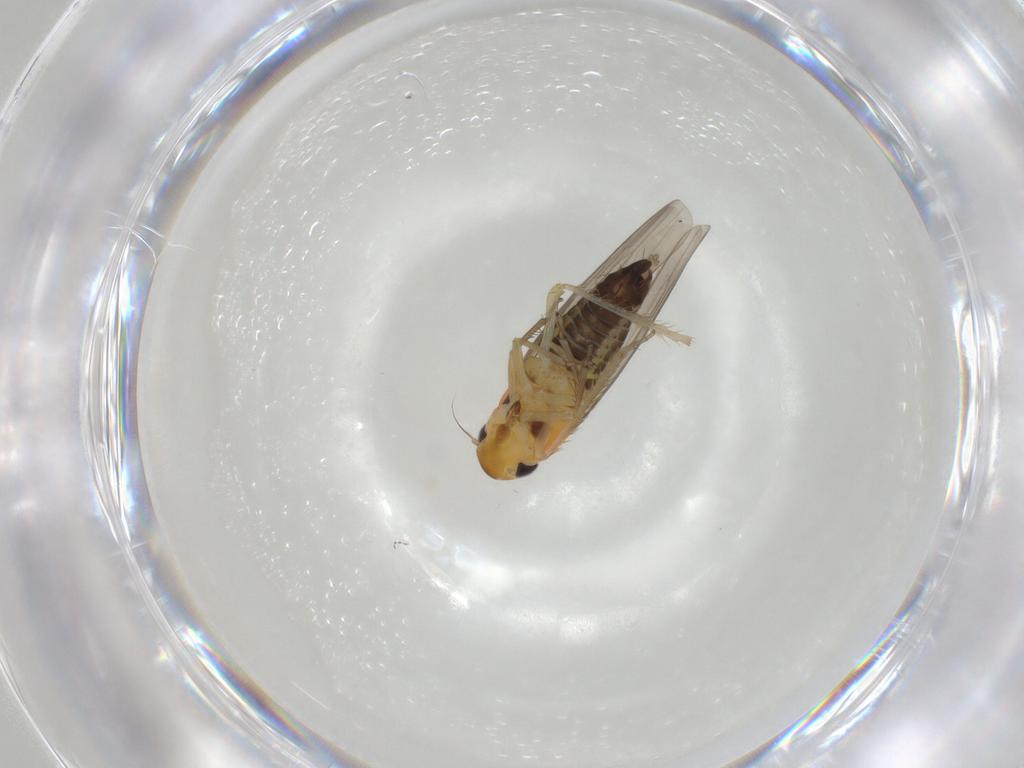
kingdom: Animalia
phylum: Arthropoda
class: Insecta
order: Hemiptera
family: Cicadellidae
